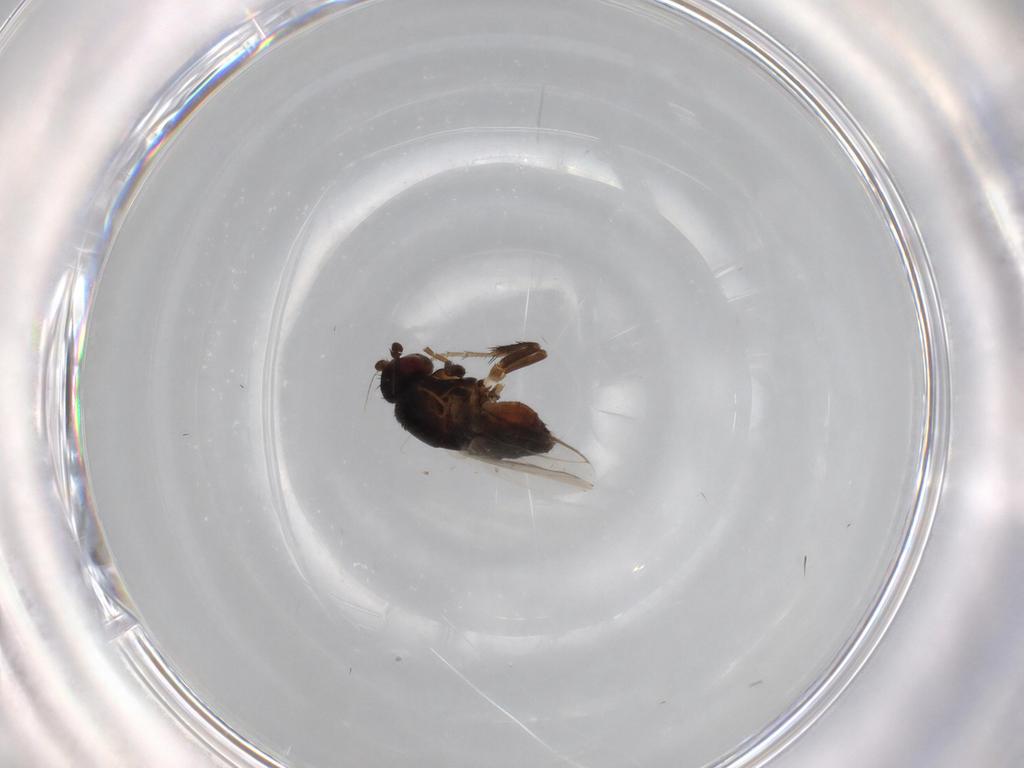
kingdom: Animalia
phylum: Arthropoda
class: Insecta
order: Diptera
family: Sphaeroceridae
